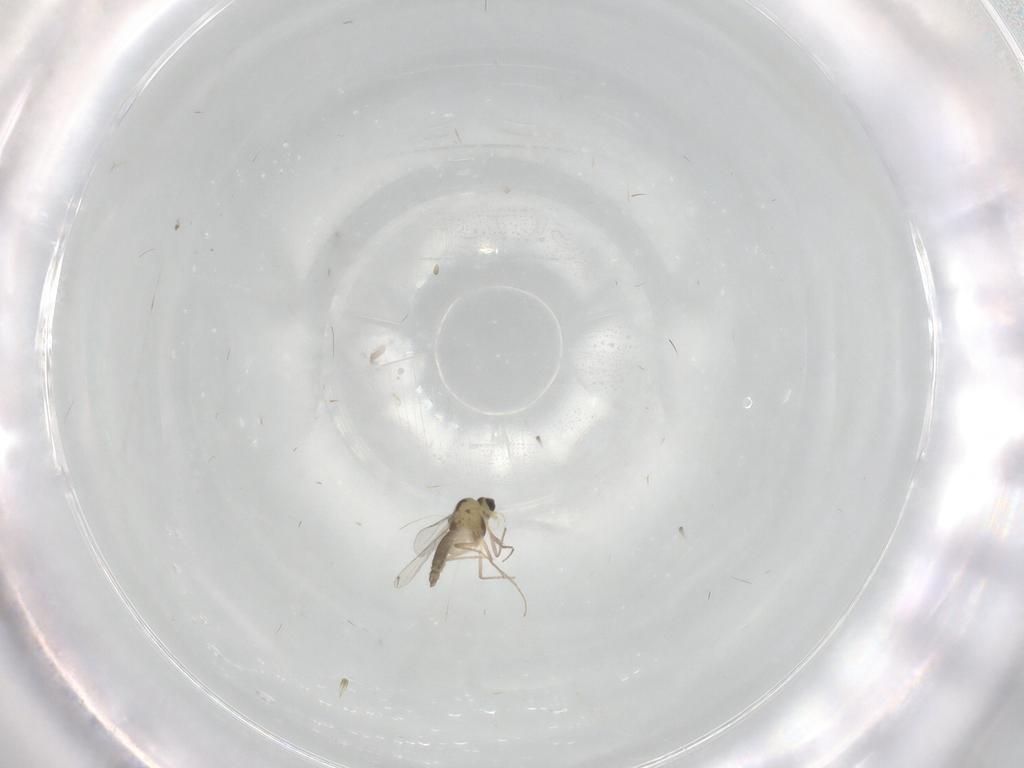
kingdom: Animalia
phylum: Arthropoda
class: Insecta
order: Diptera
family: Chironomidae
